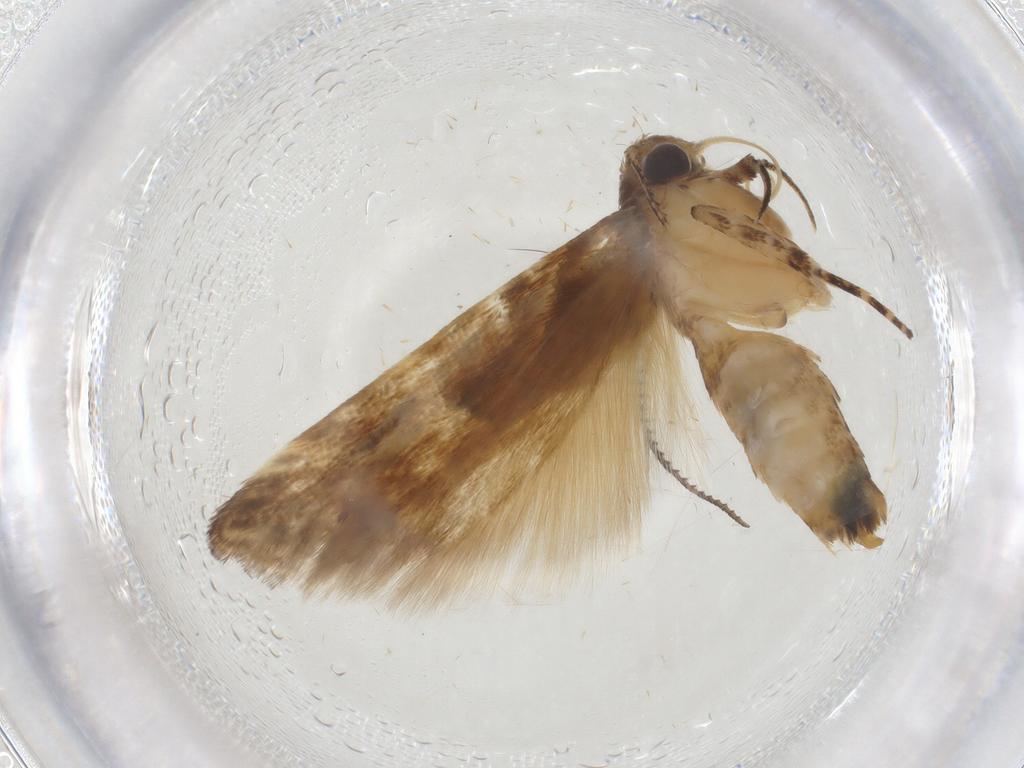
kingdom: Animalia
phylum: Arthropoda
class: Insecta
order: Lepidoptera
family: Gelechiidae
